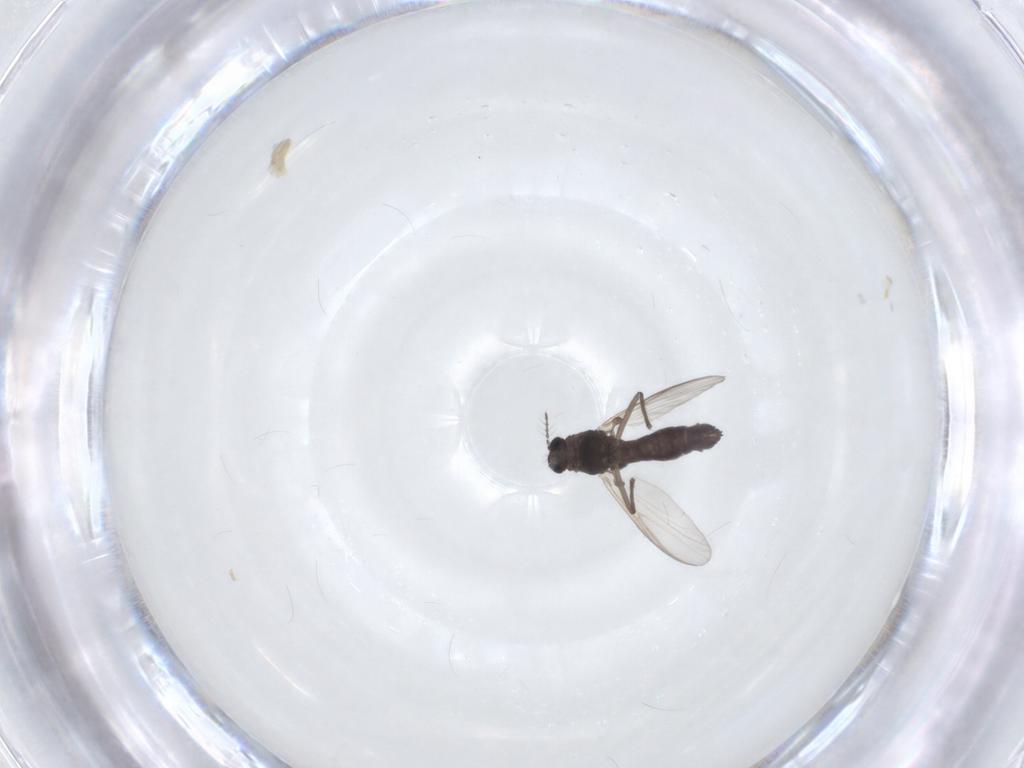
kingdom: Animalia
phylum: Arthropoda
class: Insecta
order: Diptera
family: Chironomidae
